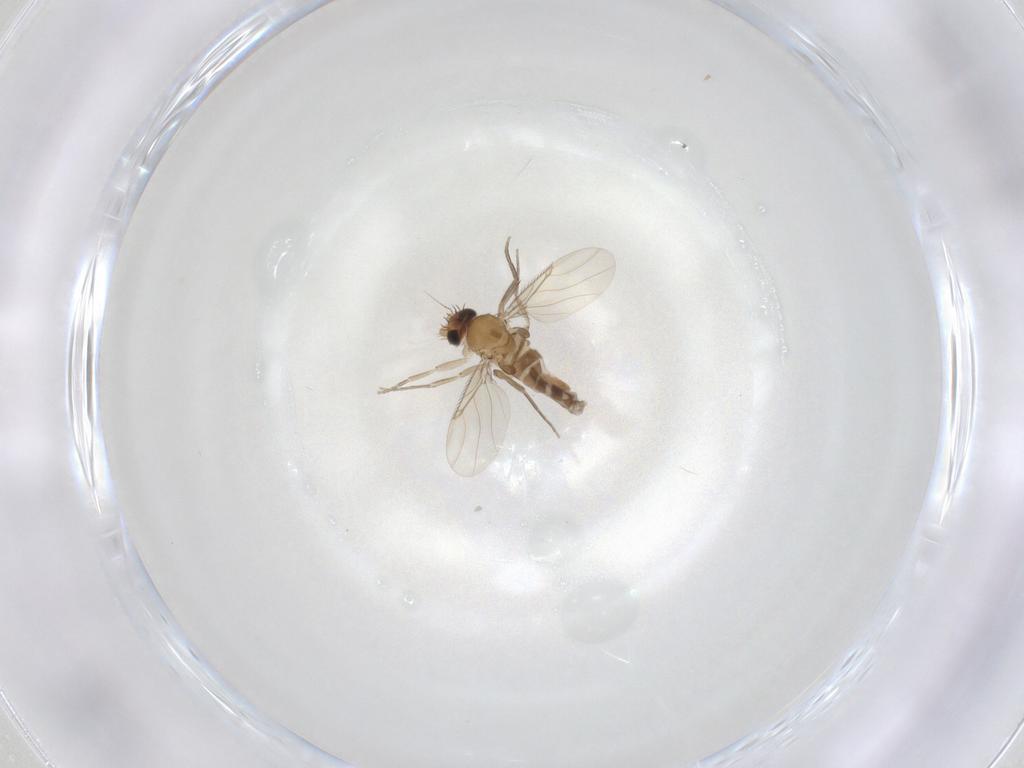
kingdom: Animalia
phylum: Arthropoda
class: Insecta
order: Diptera
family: Phoridae
